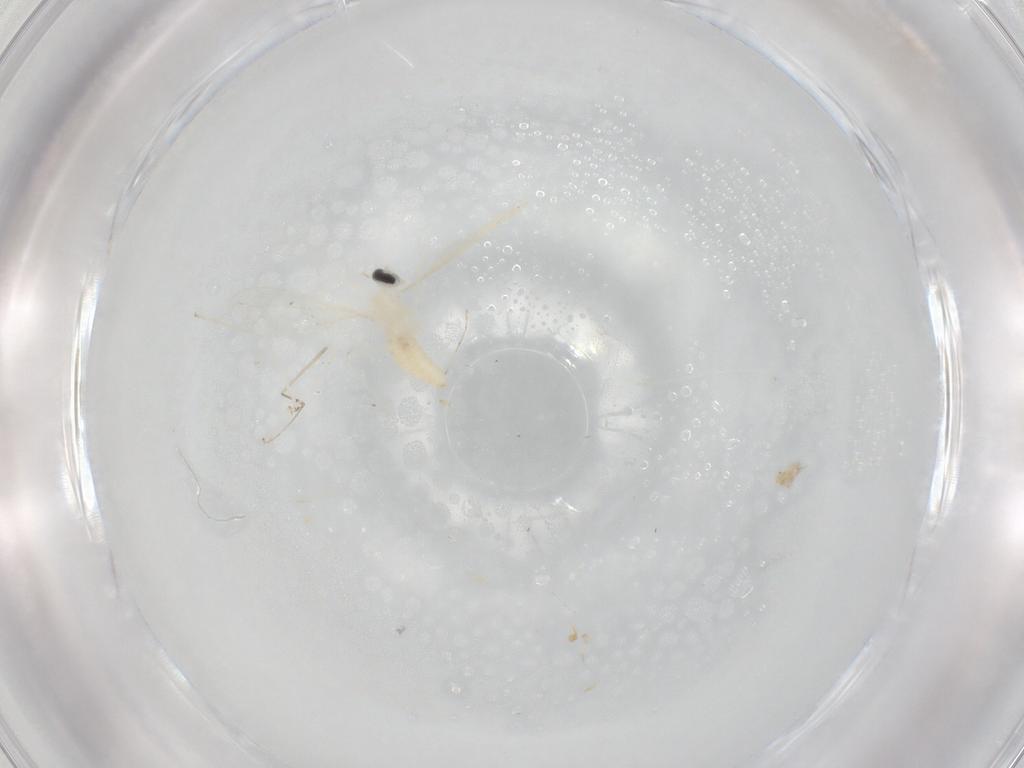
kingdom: Animalia
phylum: Arthropoda
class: Insecta
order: Diptera
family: Cecidomyiidae
